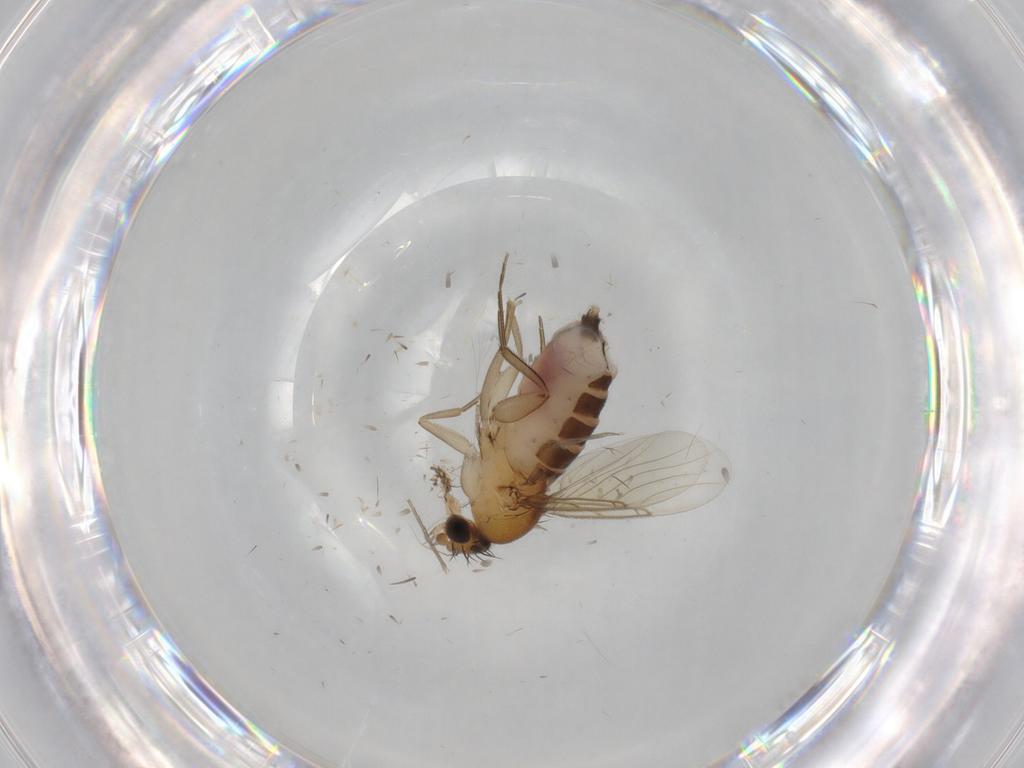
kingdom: Animalia
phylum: Arthropoda
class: Insecta
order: Diptera
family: Phoridae
